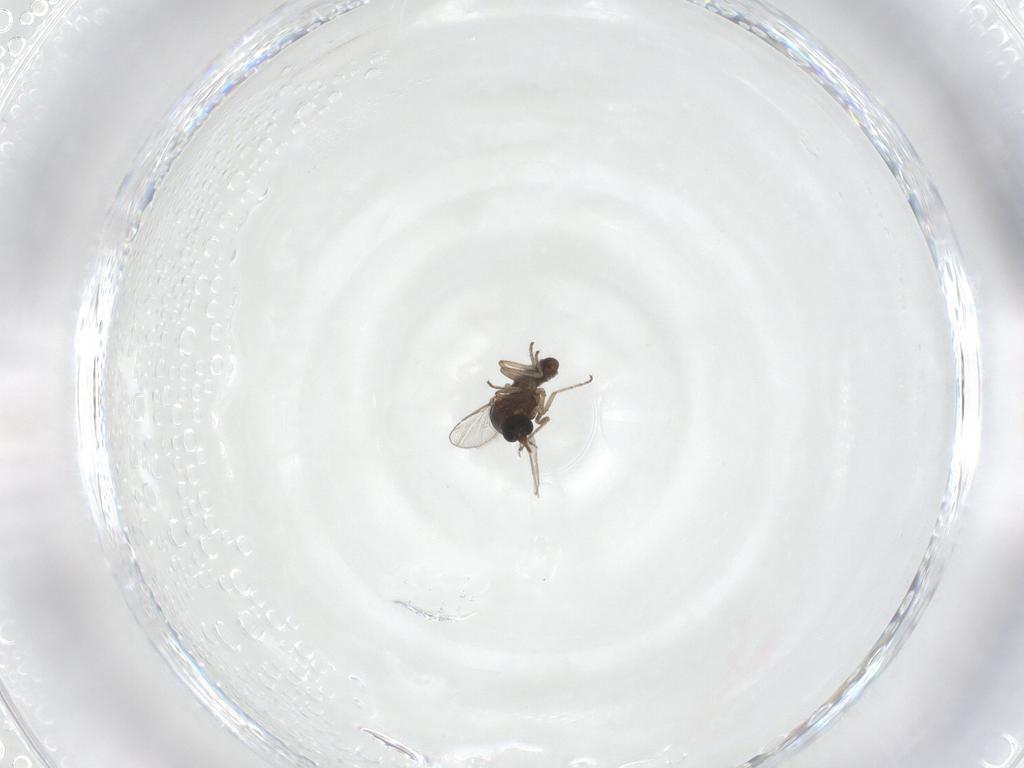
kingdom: Animalia
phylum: Arthropoda
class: Insecta
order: Diptera
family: Ceratopogonidae
